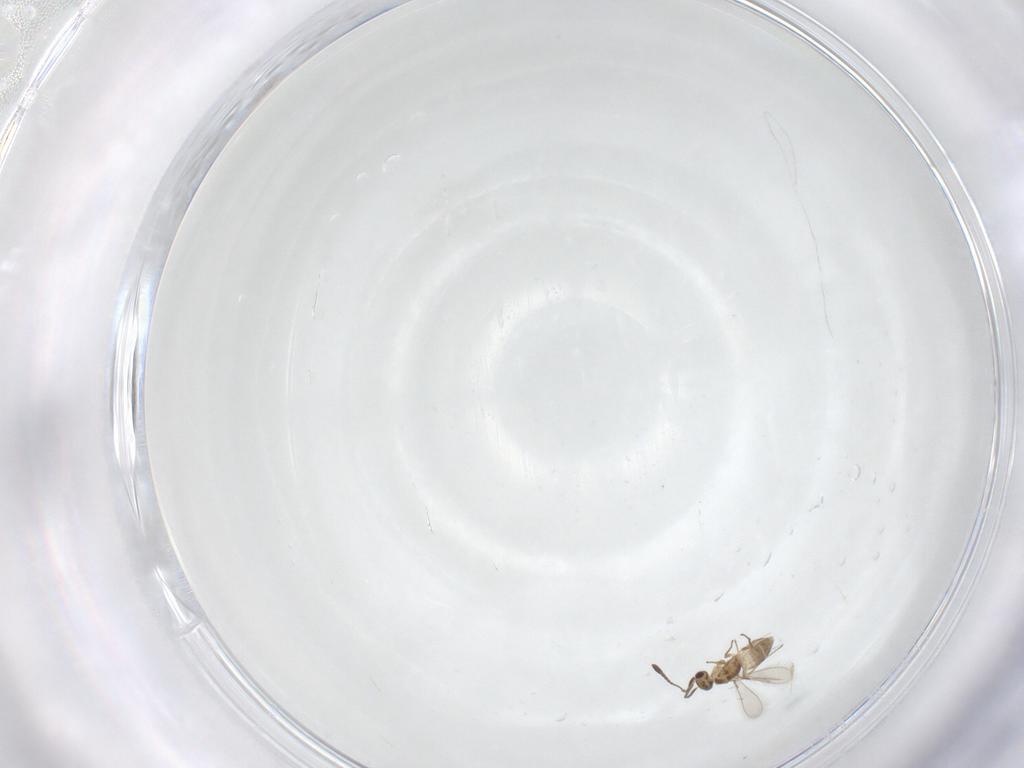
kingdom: Animalia
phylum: Arthropoda
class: Insecta
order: Hymenoptera
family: Mymaridae
